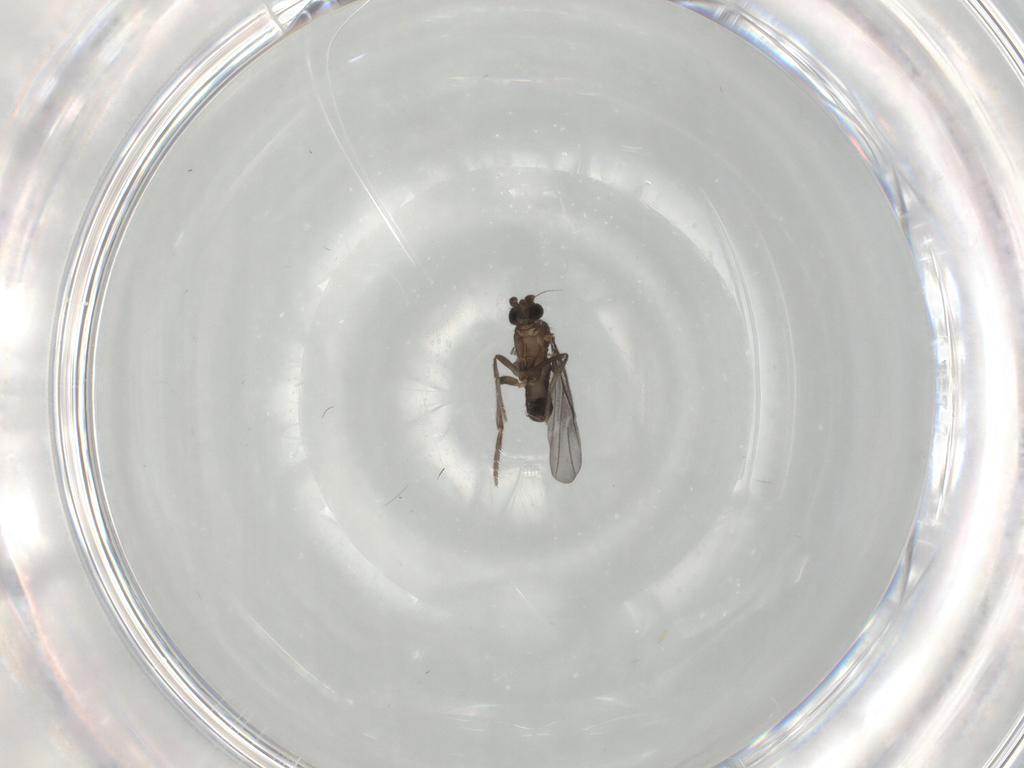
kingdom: Animalia
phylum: Arthropoda
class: Insecta
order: Diptera
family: Phoridae
